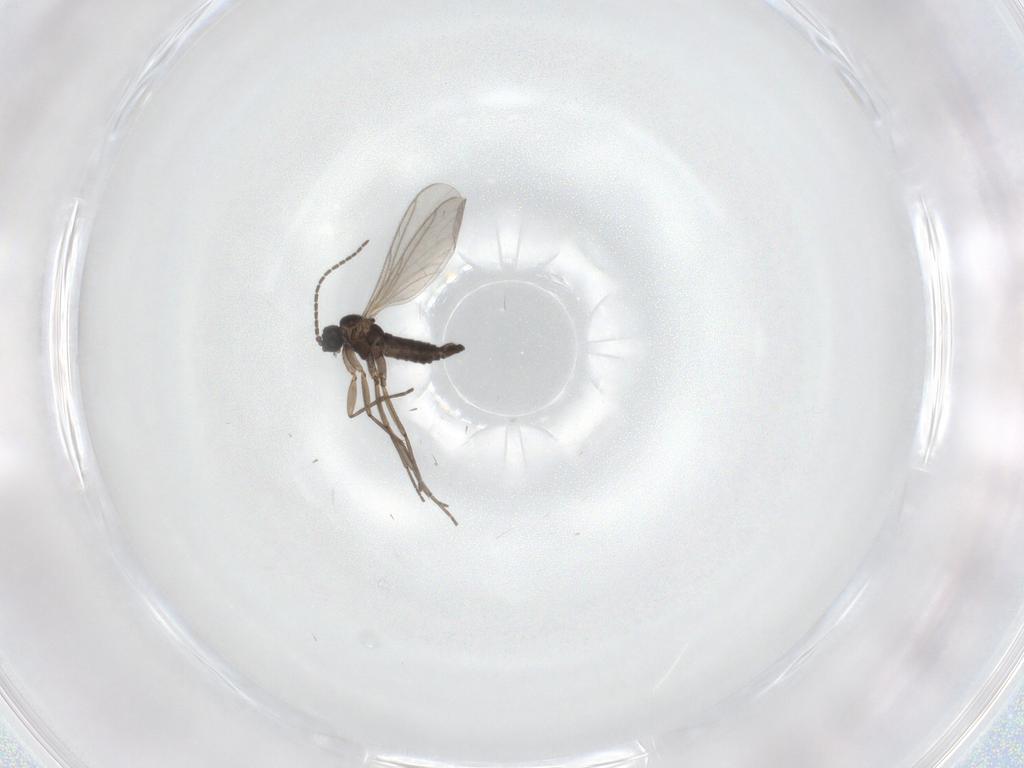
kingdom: Animalia
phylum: Arthropoda
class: Insecta
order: Diptera
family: Sciaridae
